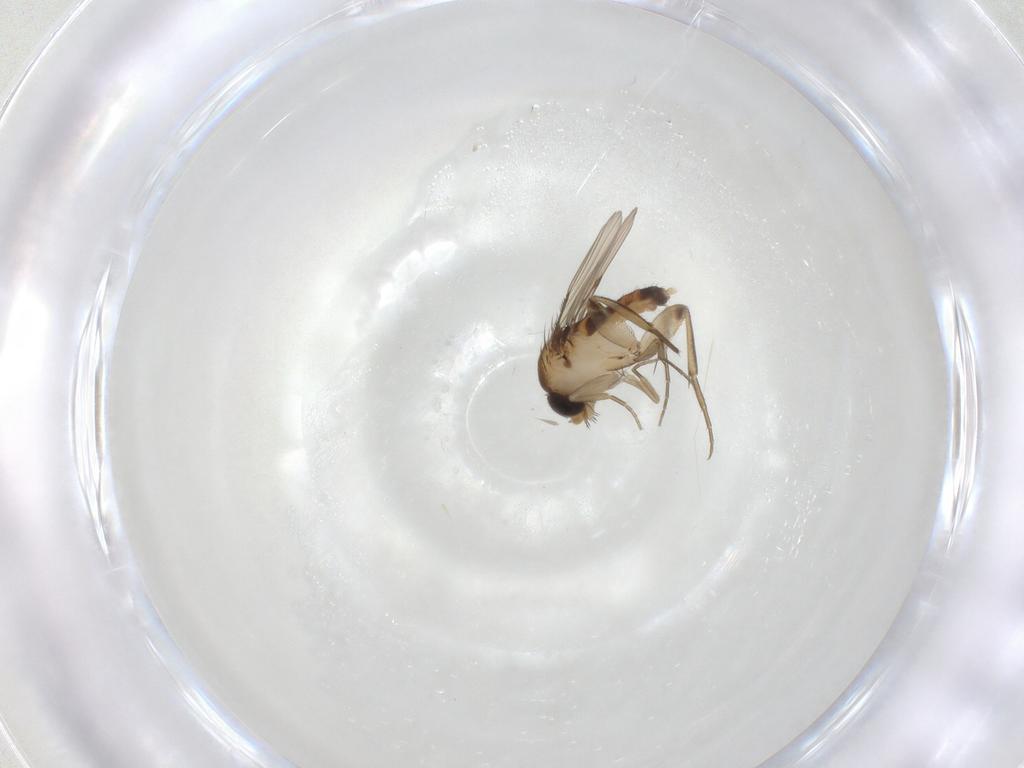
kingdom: Animalia
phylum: Arthropoda
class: Insecta
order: Diptera
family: Phoridae
